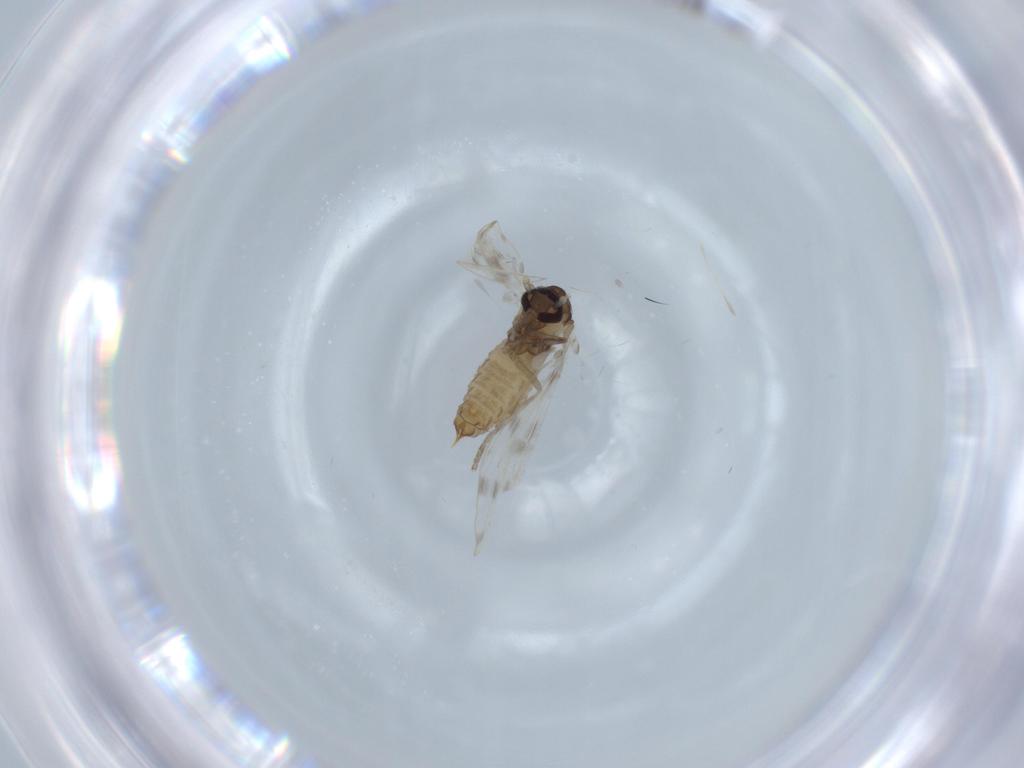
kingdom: Animalia
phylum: Arthropoda
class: Insecta
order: Diptera
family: Psychodidae
